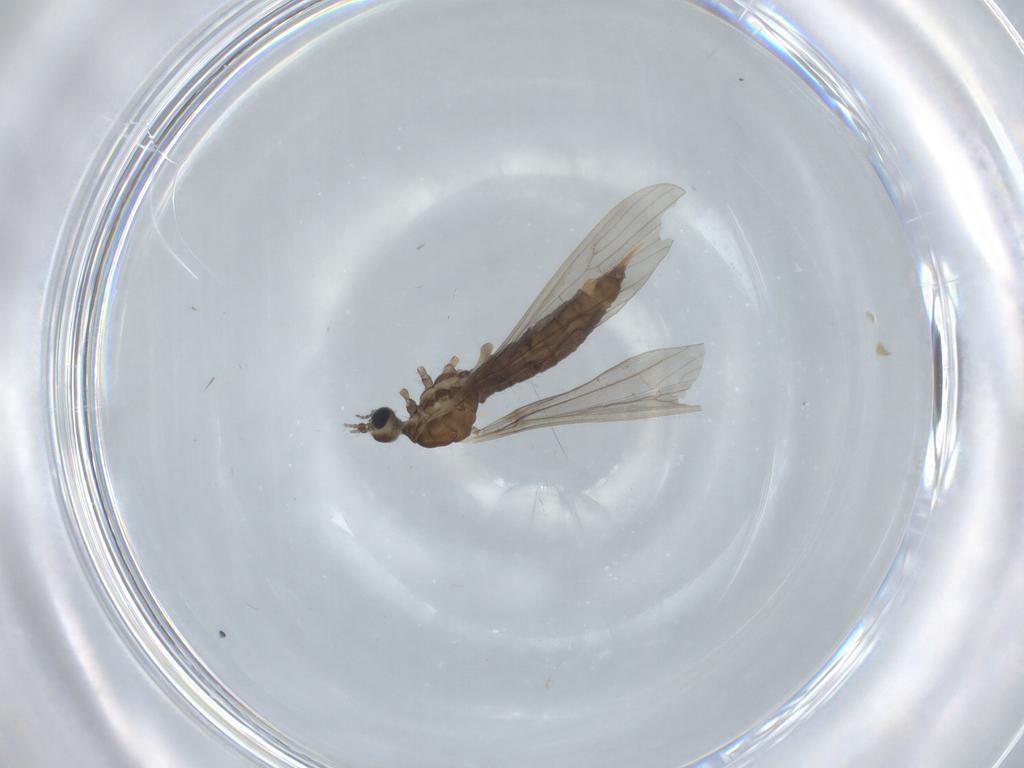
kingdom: Animalia
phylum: Arthropoda
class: Insecta
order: Diptera
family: Limoniidae
